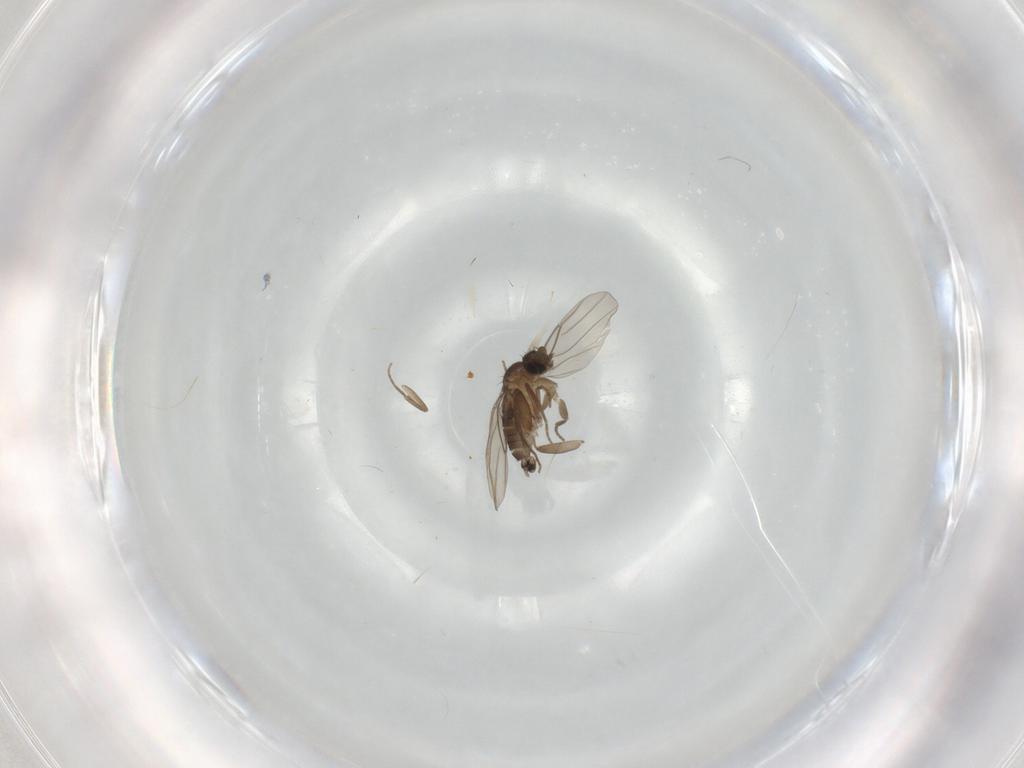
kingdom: Animalia
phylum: Arthropoda
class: Insecta
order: Diptera
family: Phoridae
